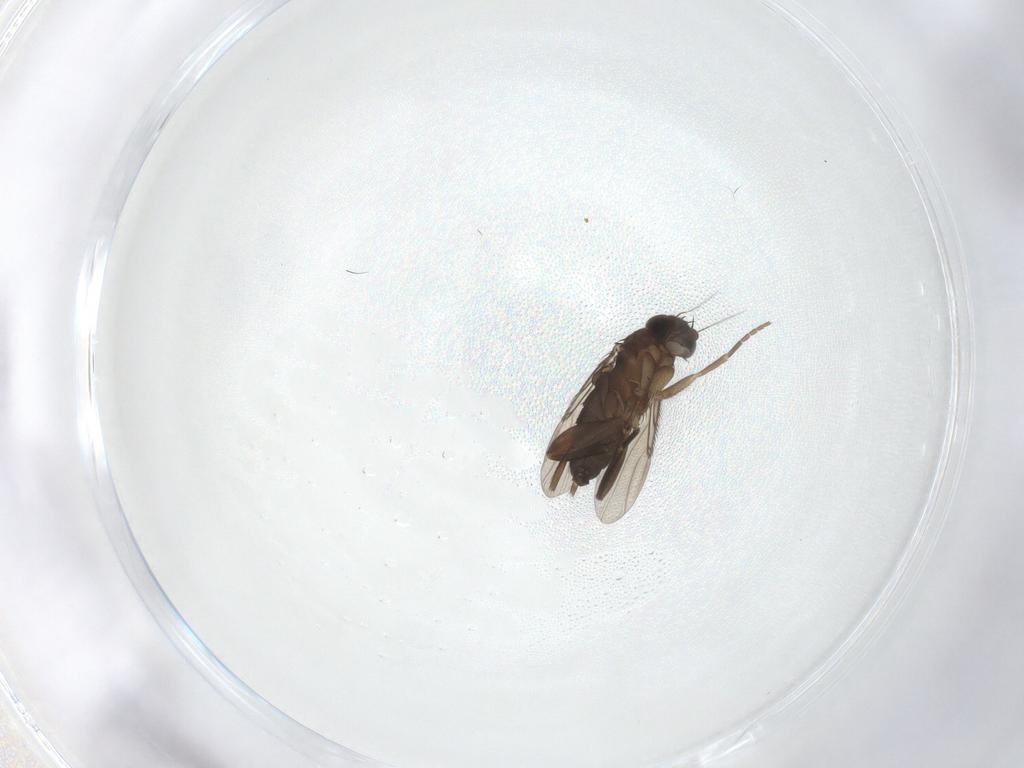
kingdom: Animalia
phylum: Arthropoda
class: Insecta
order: Diptera
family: Phoridae
